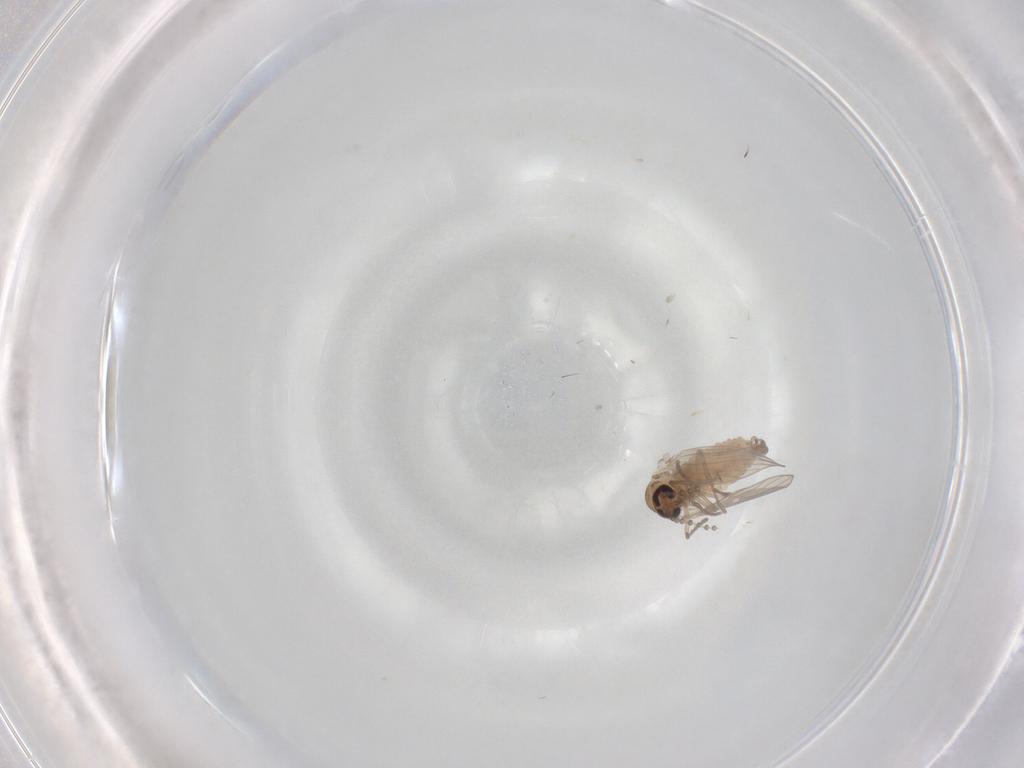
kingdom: Animalia
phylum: Arthropoda
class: Insecta
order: Diptera
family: Phoridae
